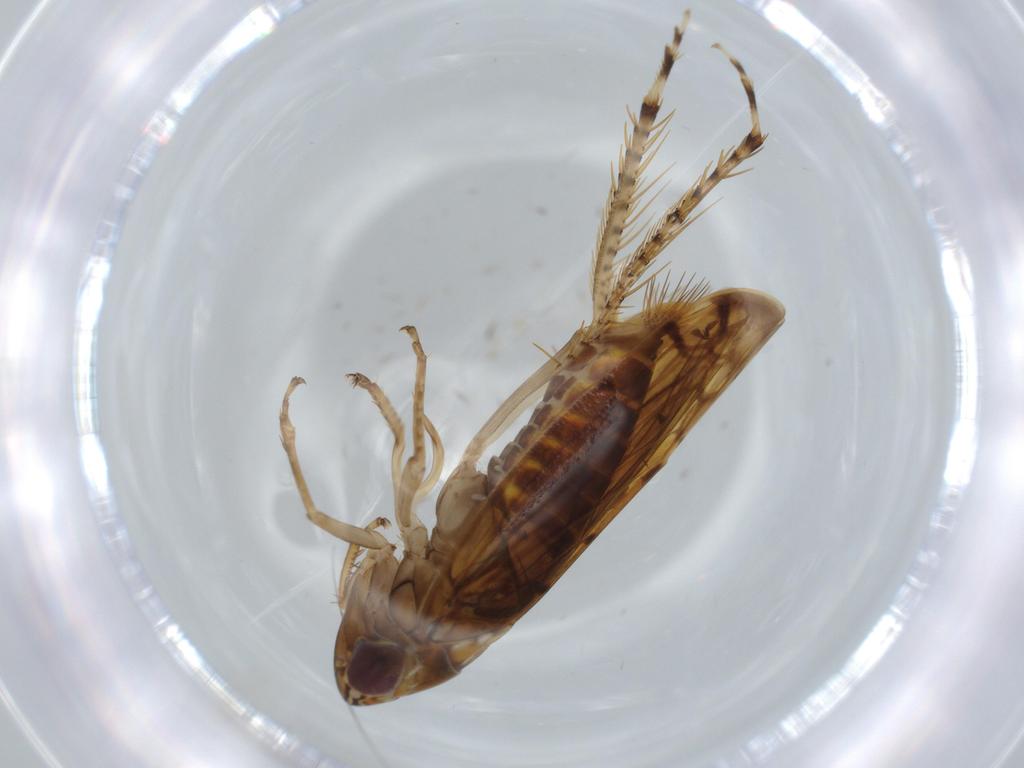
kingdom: Animalia
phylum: Arthropoda
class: Insecta
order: Hemiptera
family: Cicadellidae
